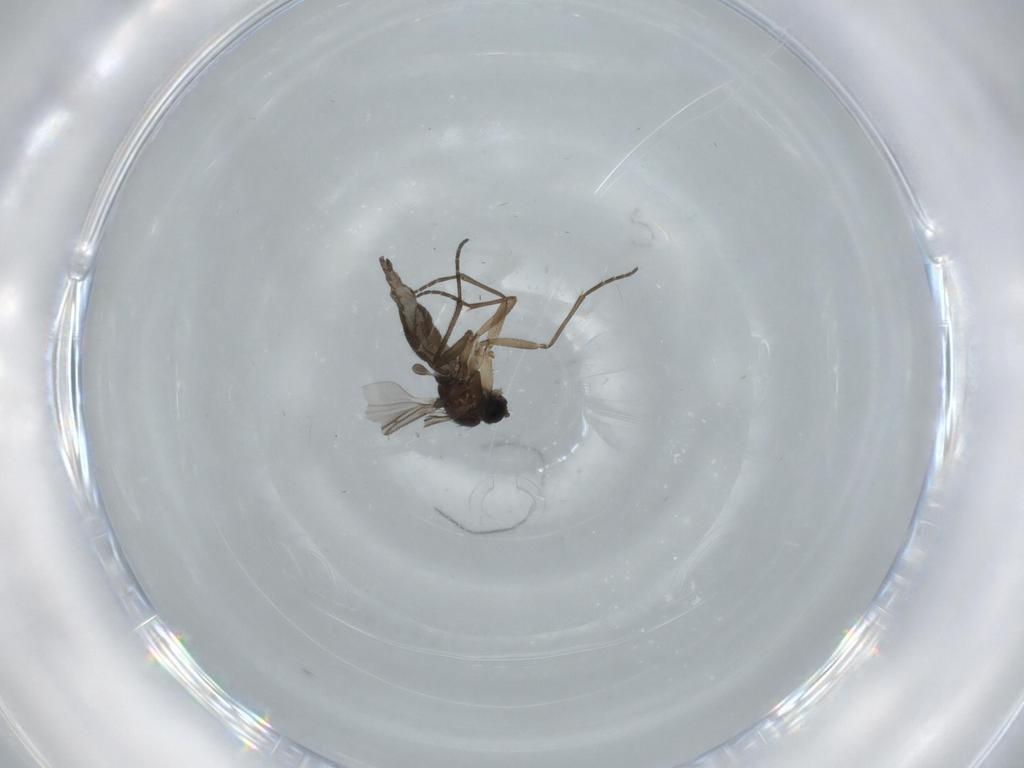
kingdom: Animalia
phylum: Arthropoda
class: Insecta
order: Diptera
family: Sciaridae
